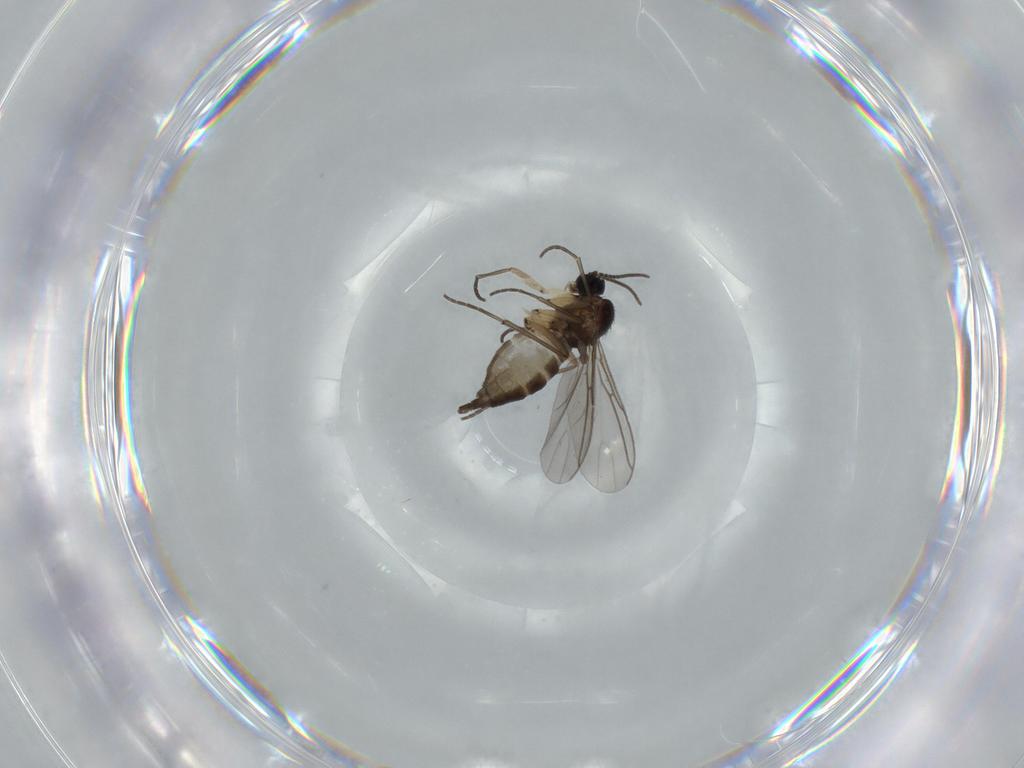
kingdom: Animalia
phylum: Arthropoda
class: Insecta
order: Diptera
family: Sciaridae
